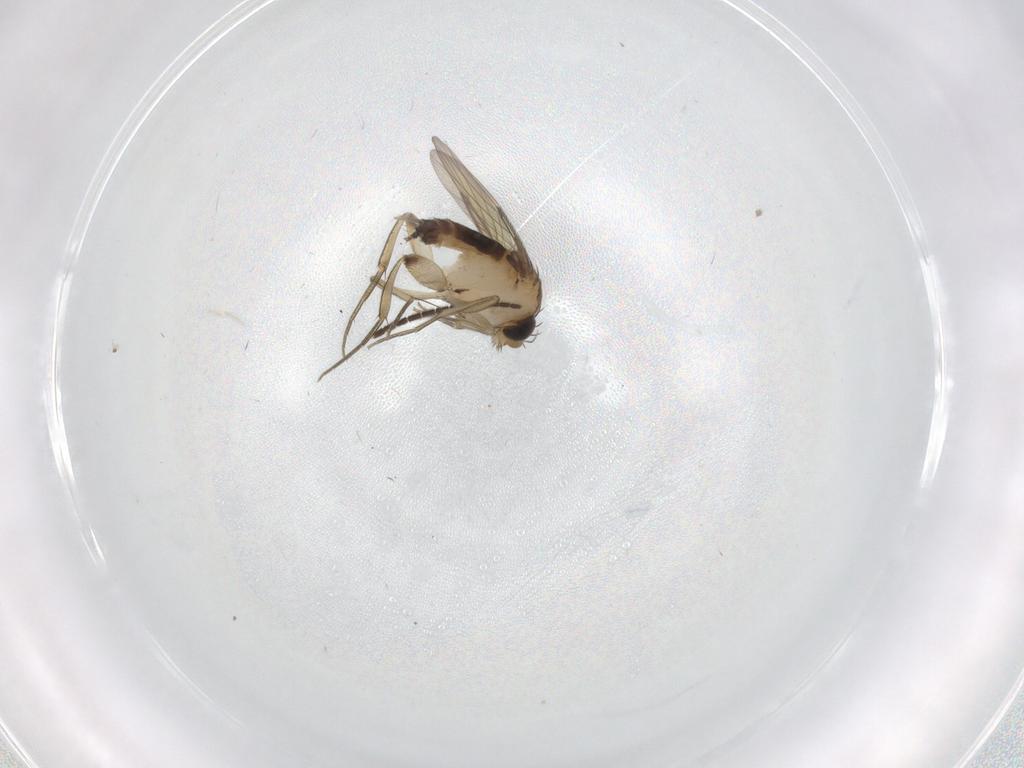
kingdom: Animalia
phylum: Arthropoda
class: Insecta
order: Diptera
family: Phoridae
